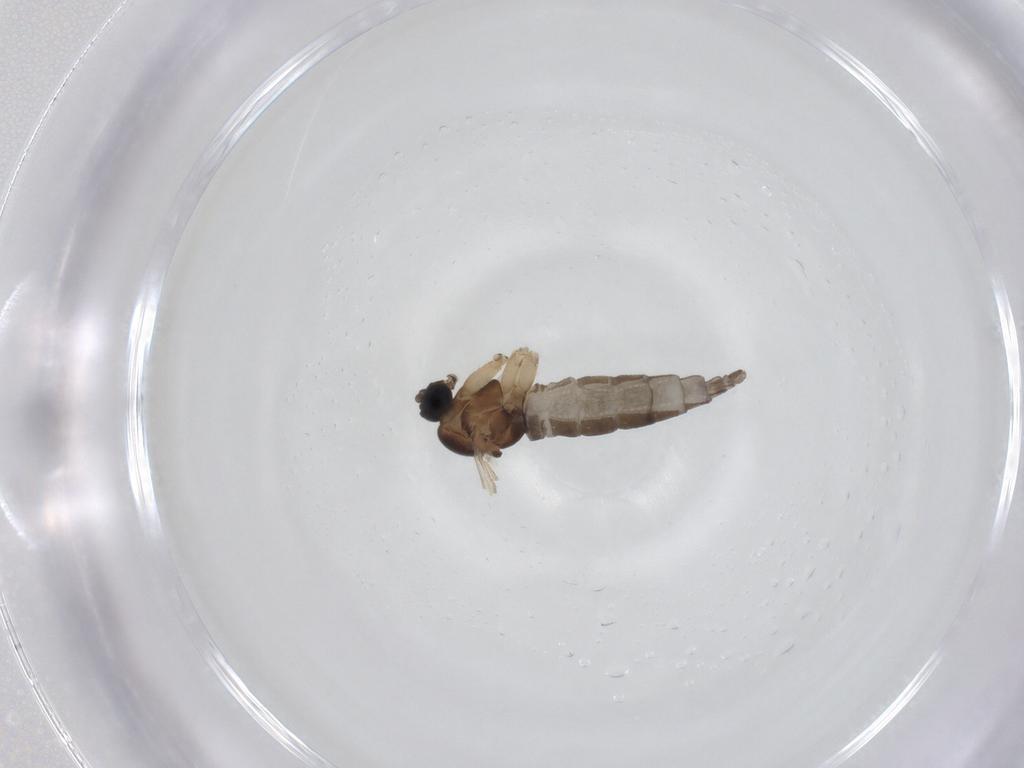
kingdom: Animalia
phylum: Arthropoda
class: Insecta
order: Diptera
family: Sciaridae
